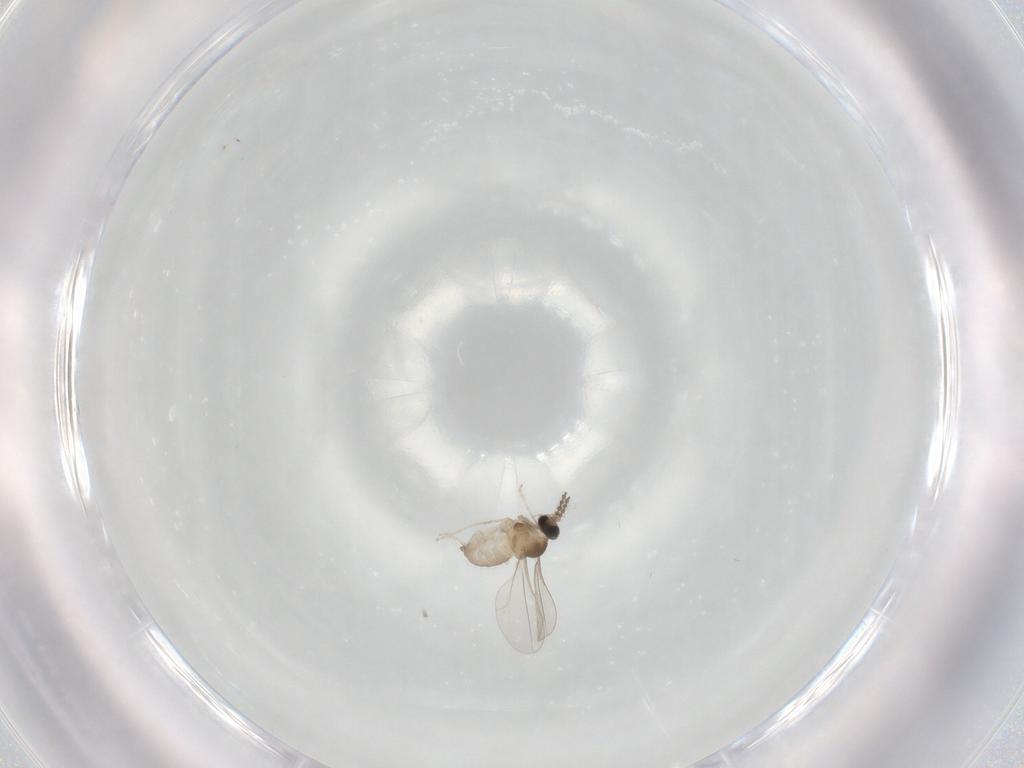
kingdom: Animalia
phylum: Arthropoda
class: Insecta
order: Diptera
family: Cecidomyiidae
